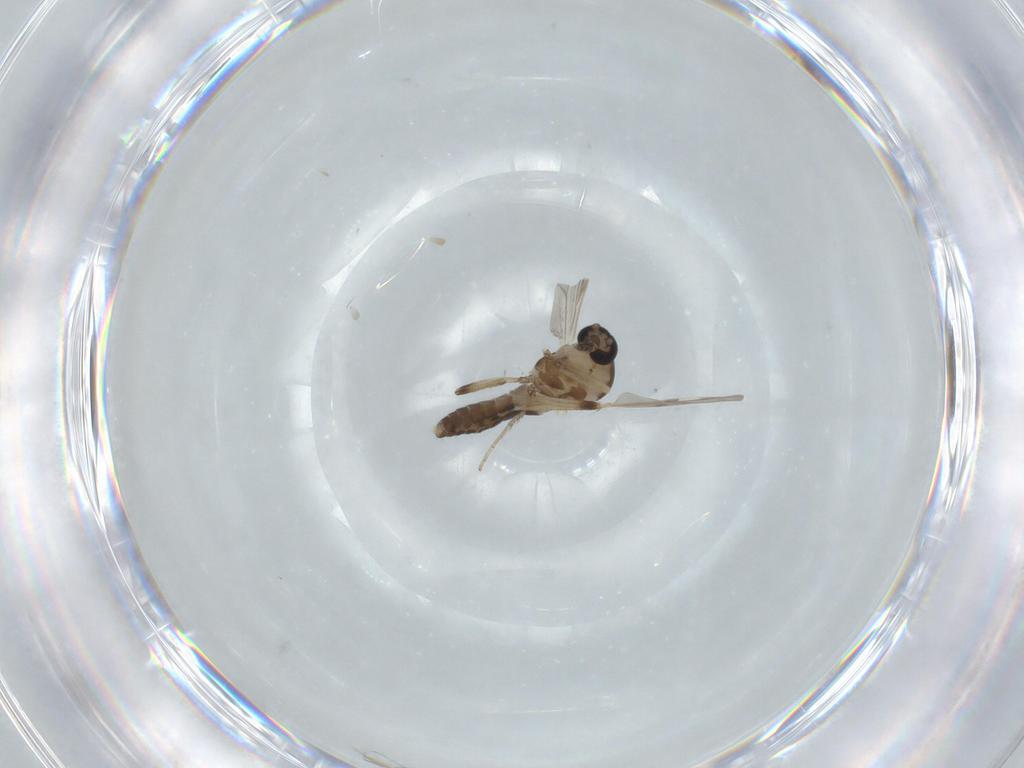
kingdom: Animalia
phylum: Arthropoda
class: Insecta
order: Diptera
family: Ceratopogonidae
